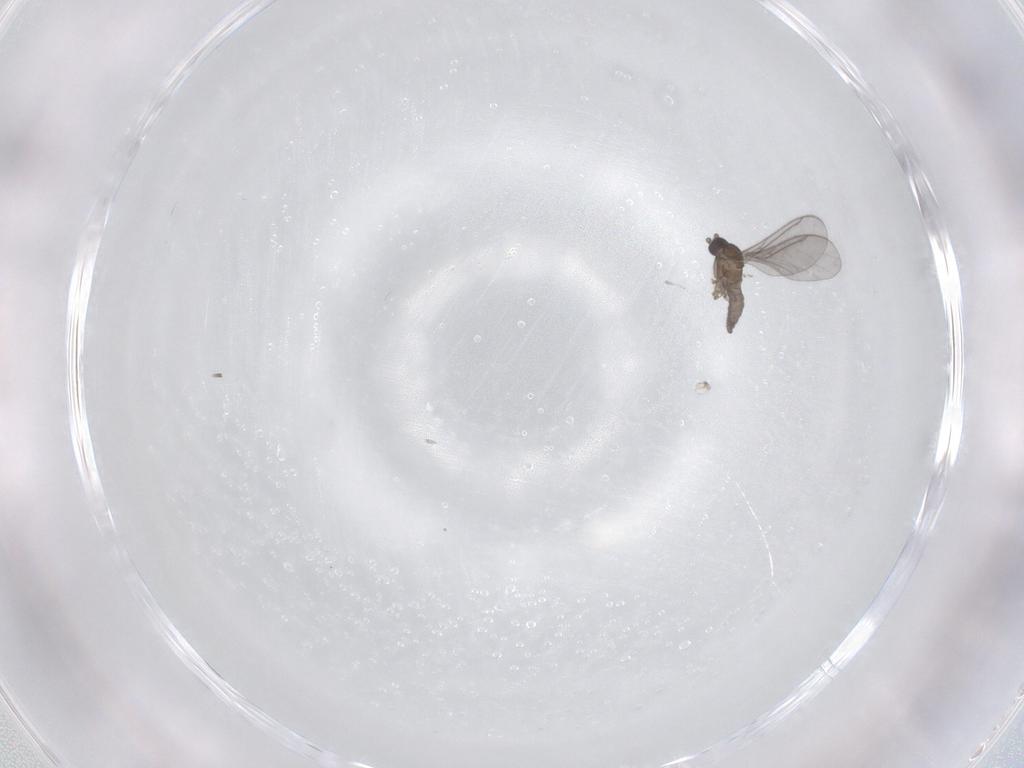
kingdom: Animalia
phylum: Arthropoda
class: Insecta
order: Diptera
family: Sciaridae
